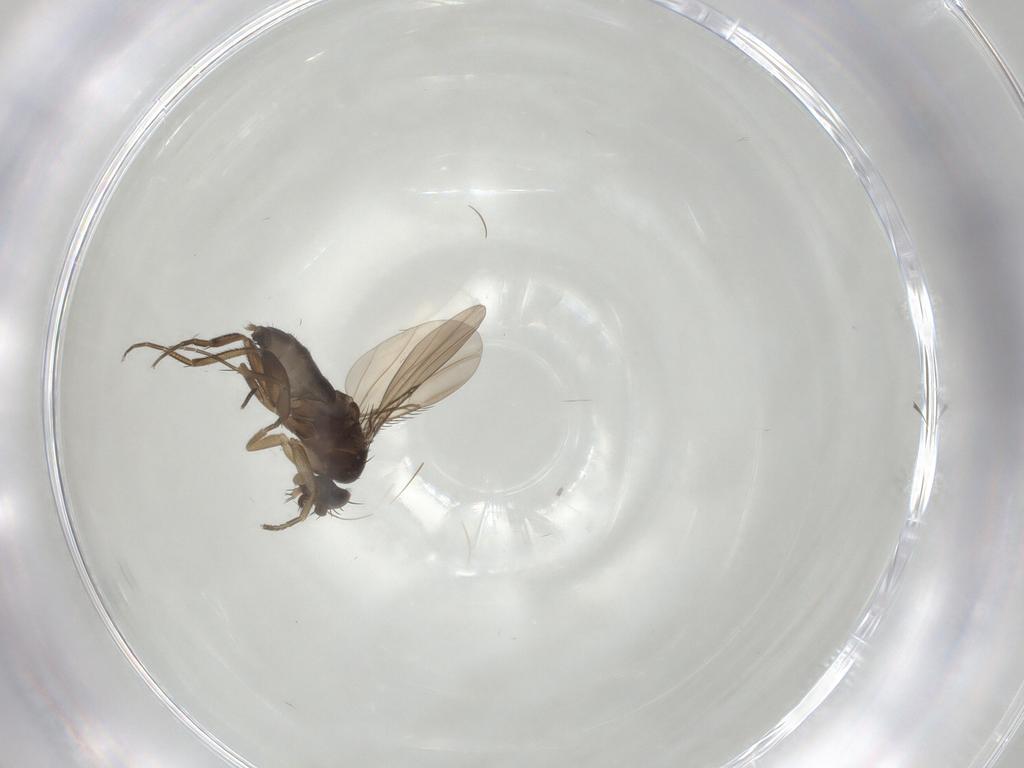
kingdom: Animalia
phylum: Arthropoda
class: Insecta
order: Diptera
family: Phoridae
